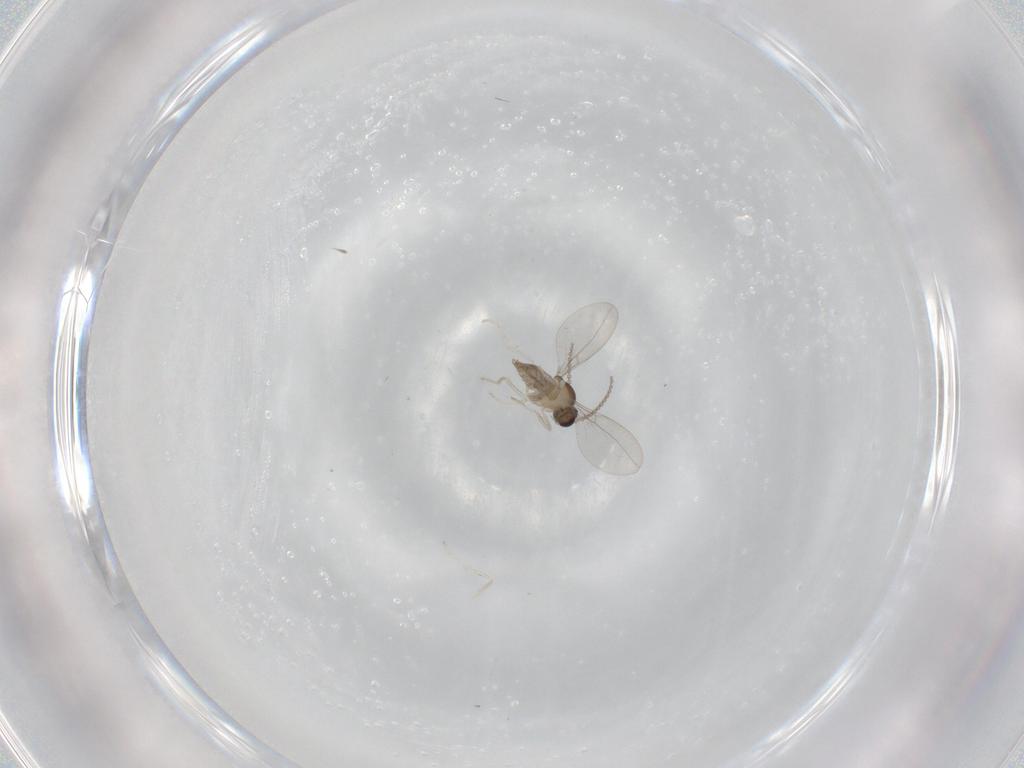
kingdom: Animalia
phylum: Arthropoda
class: Insecta
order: Diptera
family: Cecidomyiidae
